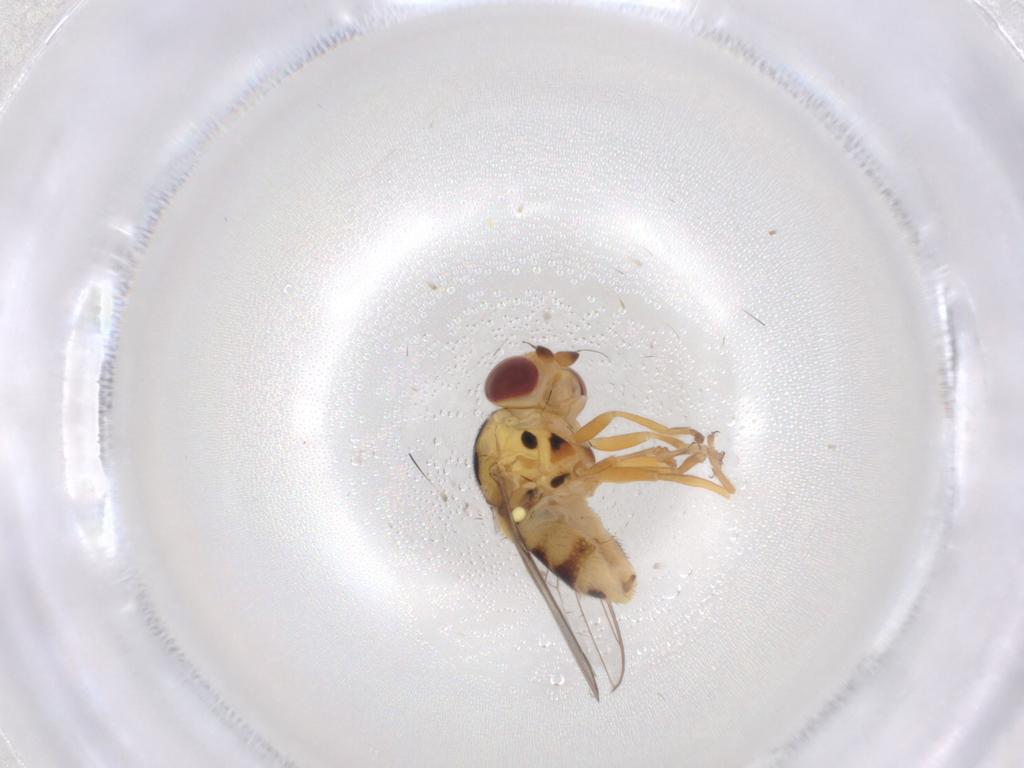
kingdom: Animalia
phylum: Arthropoda
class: Insecta
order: Diptera
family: Chloropidae
